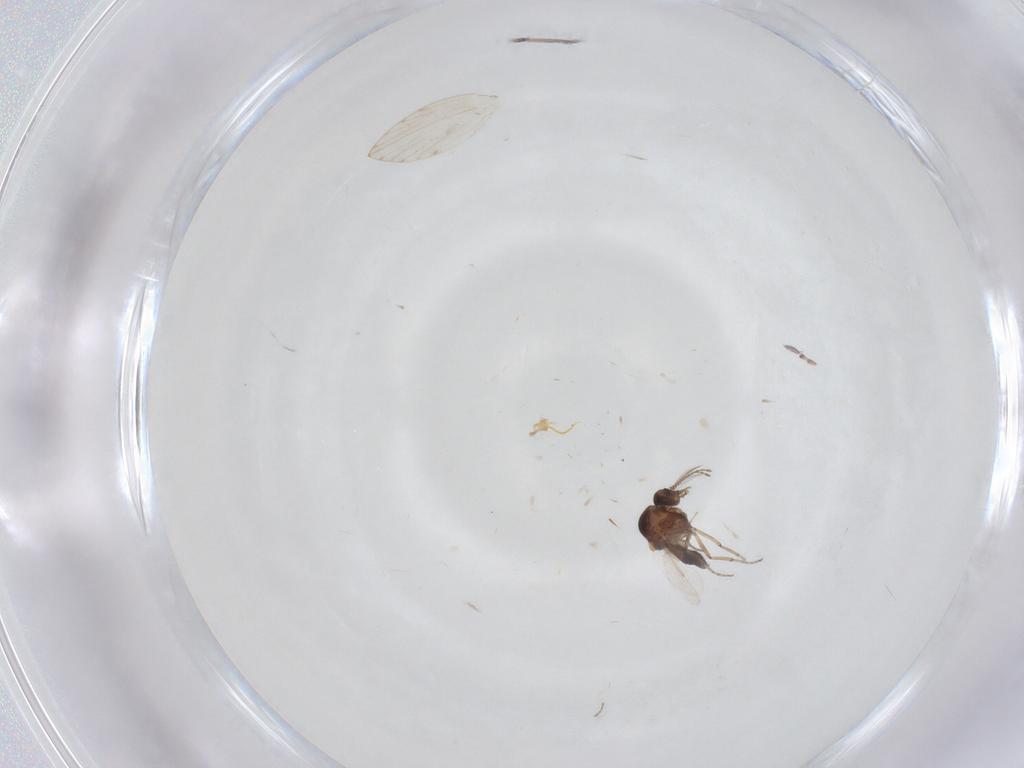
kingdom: Animalia
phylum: Arthropoda
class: Insecta
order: Diptera
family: Ceratopogonidae
